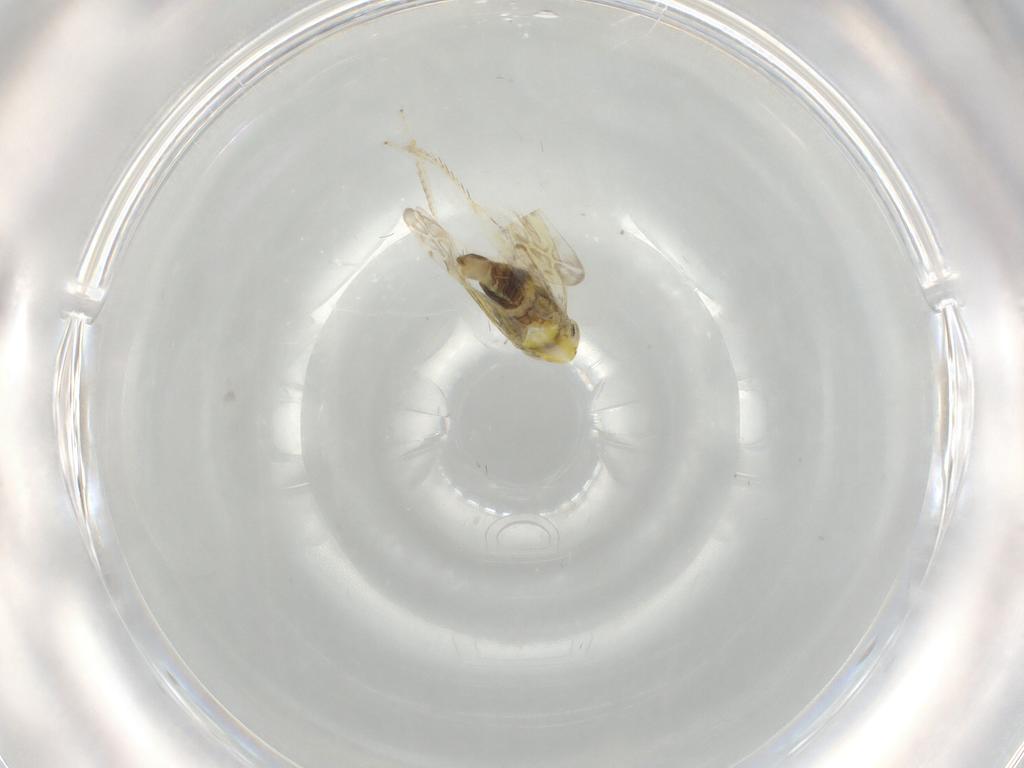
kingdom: Animalia
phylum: Arthropoda
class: Insecta
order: Hemiptera
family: Cicadellidae
